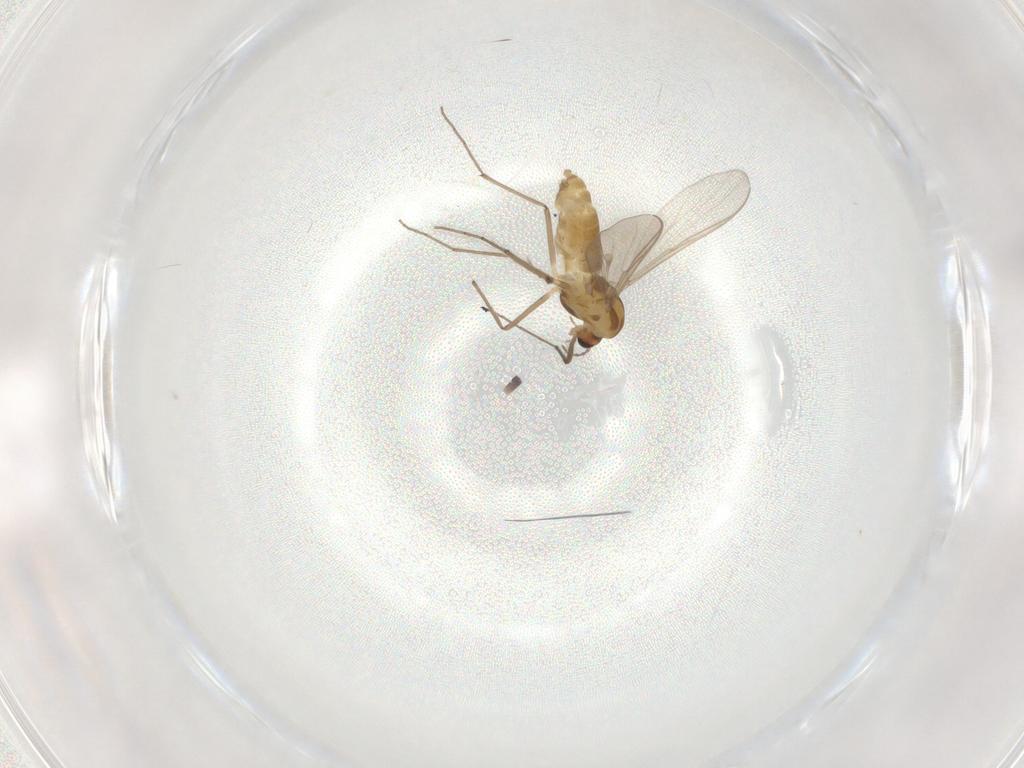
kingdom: Animalia
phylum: Arthropoda
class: Insecta
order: Diptera
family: Chironomidae
